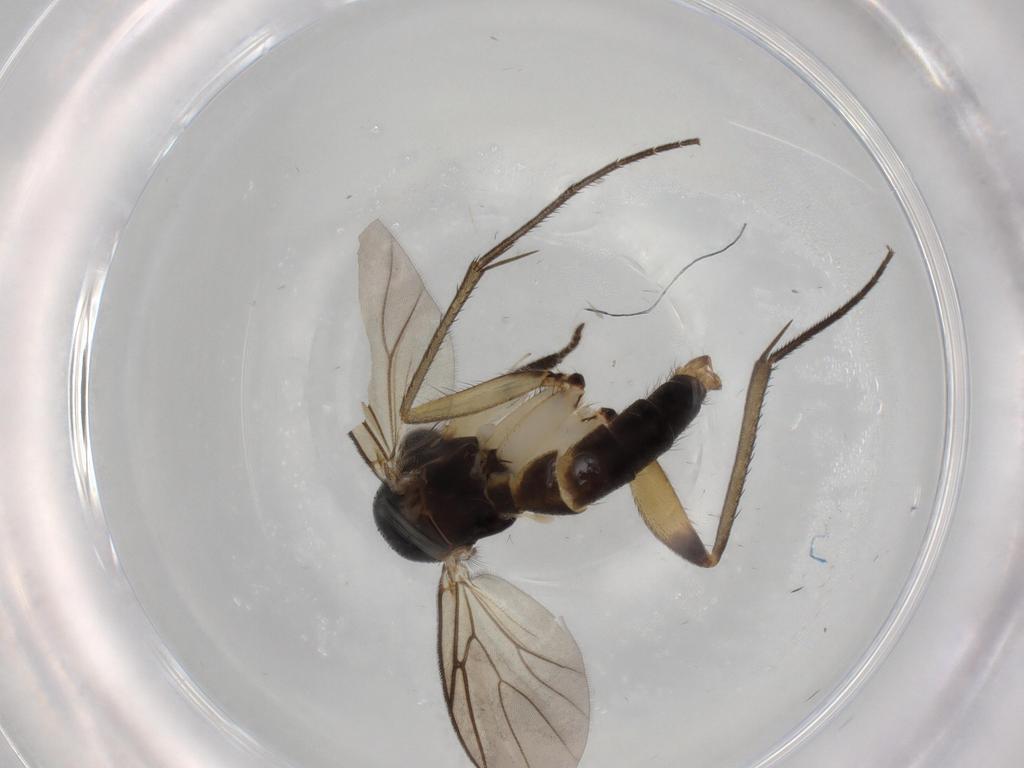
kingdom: Animalia
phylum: Arthropoda
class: Insecta
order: Diptera
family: Mycetophilidae
